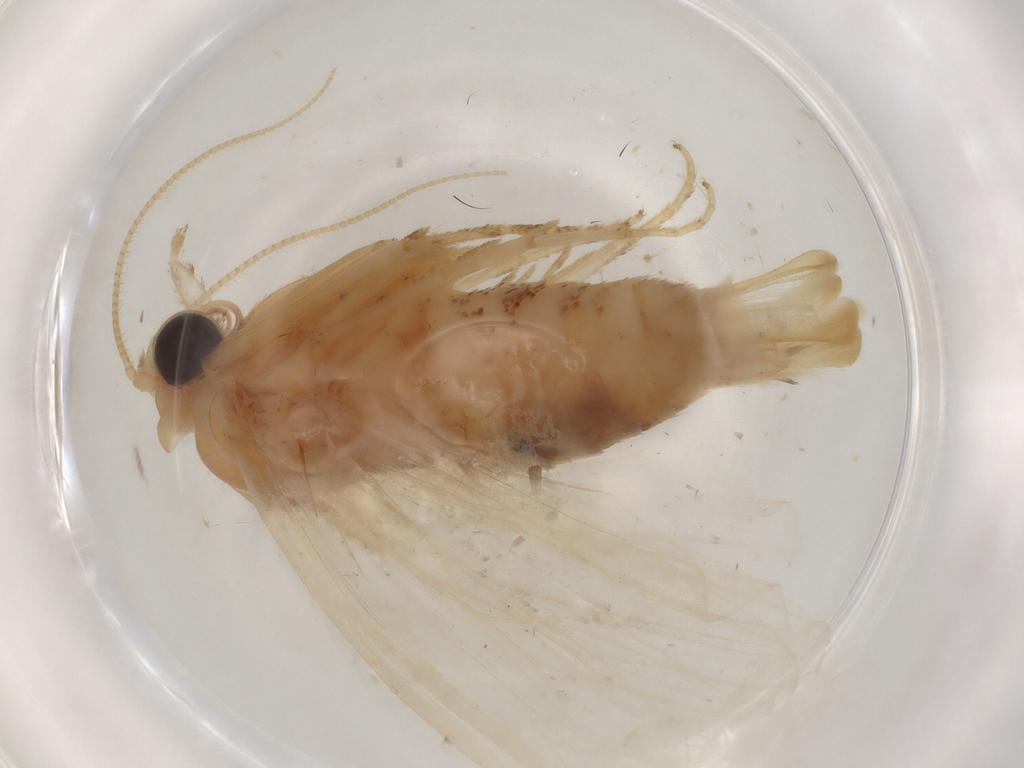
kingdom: Animalia
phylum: Arthropoda
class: Insecta
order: Lepidoptera
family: Nolidae
